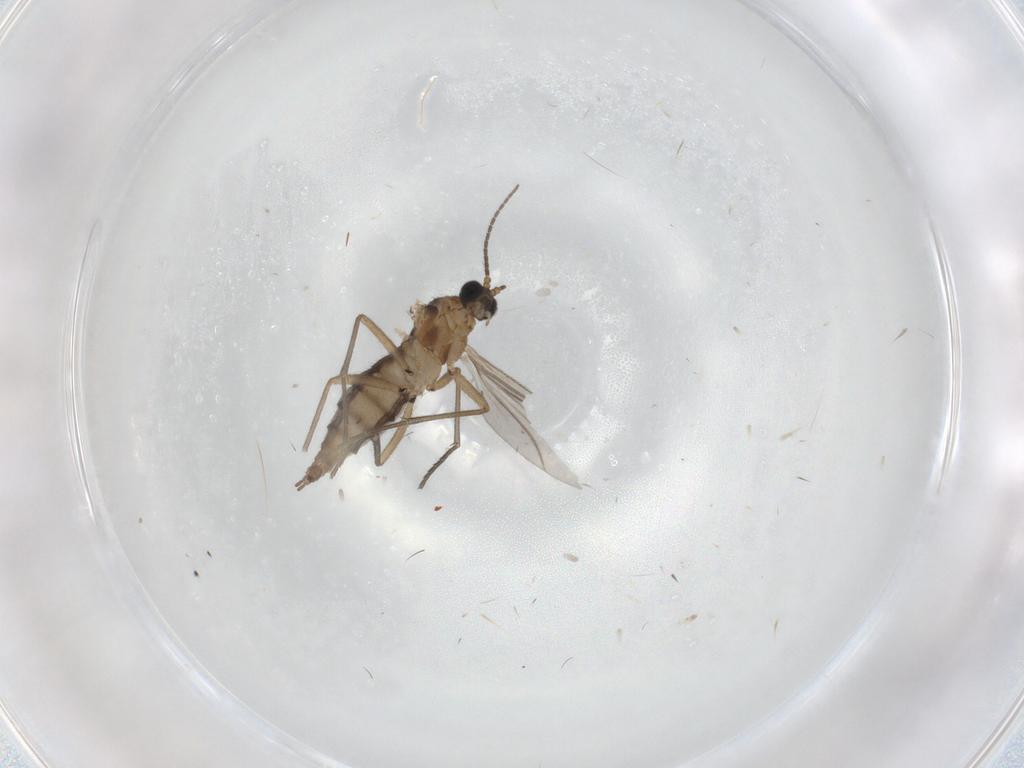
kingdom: Animalia
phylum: Arthropoda
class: Insecta
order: Diptera
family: Sciaridae
